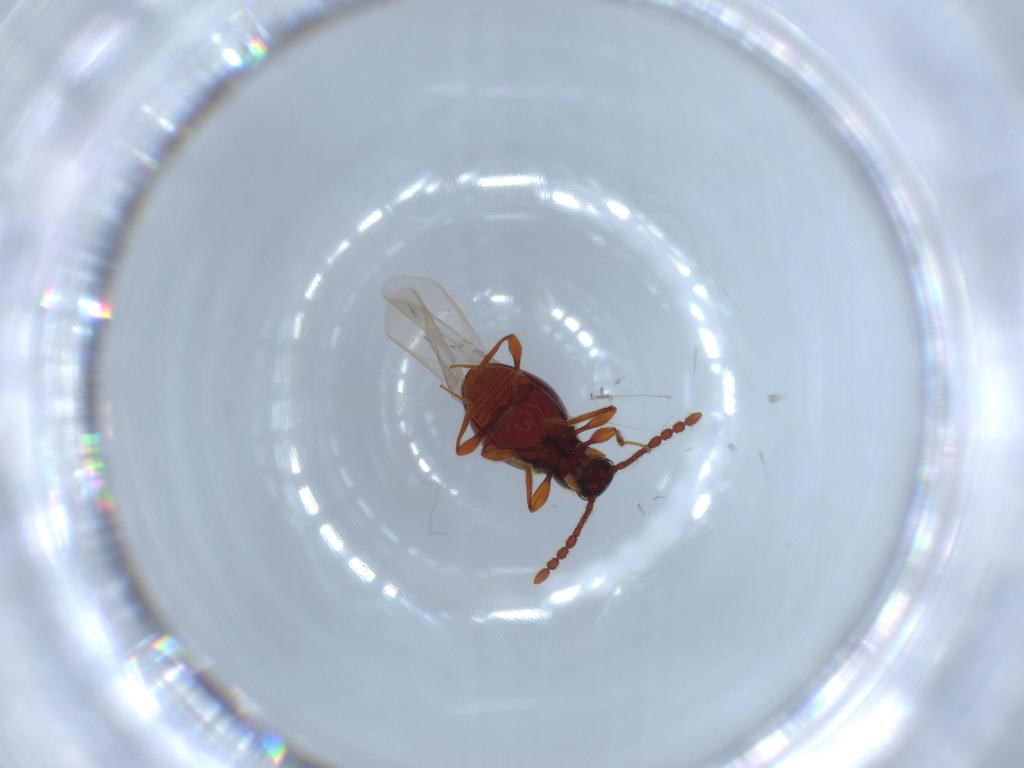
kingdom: Animalia
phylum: Arthropoda
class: Insecta
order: Coleoptera
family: Staphylinidae
